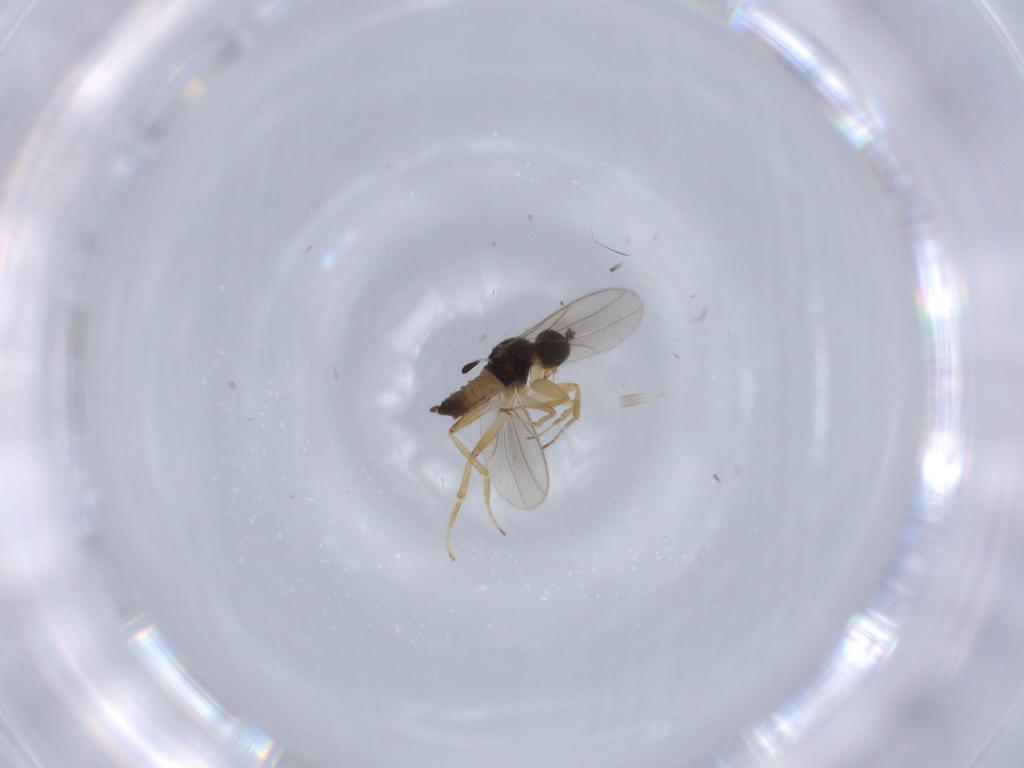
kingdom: Animalia
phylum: Arthropoda
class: Insecta
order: Diptera
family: Hybotidae
